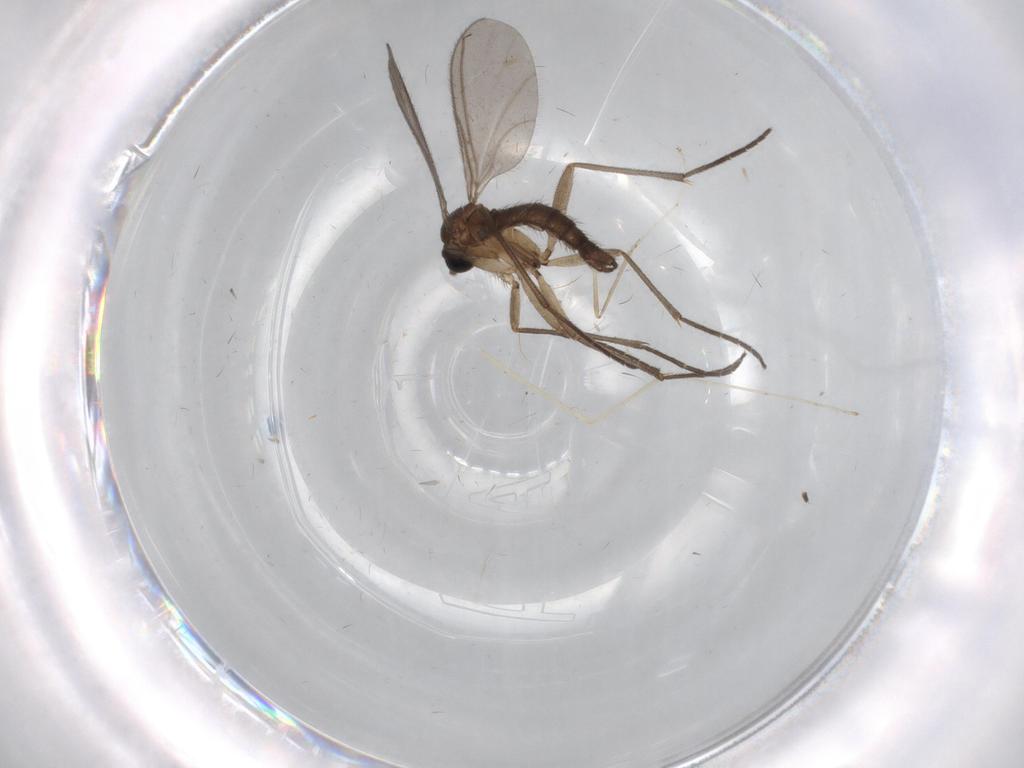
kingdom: Animalia
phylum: Arthropoda
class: Insecta
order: Diptera
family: Cecidomyiidae
